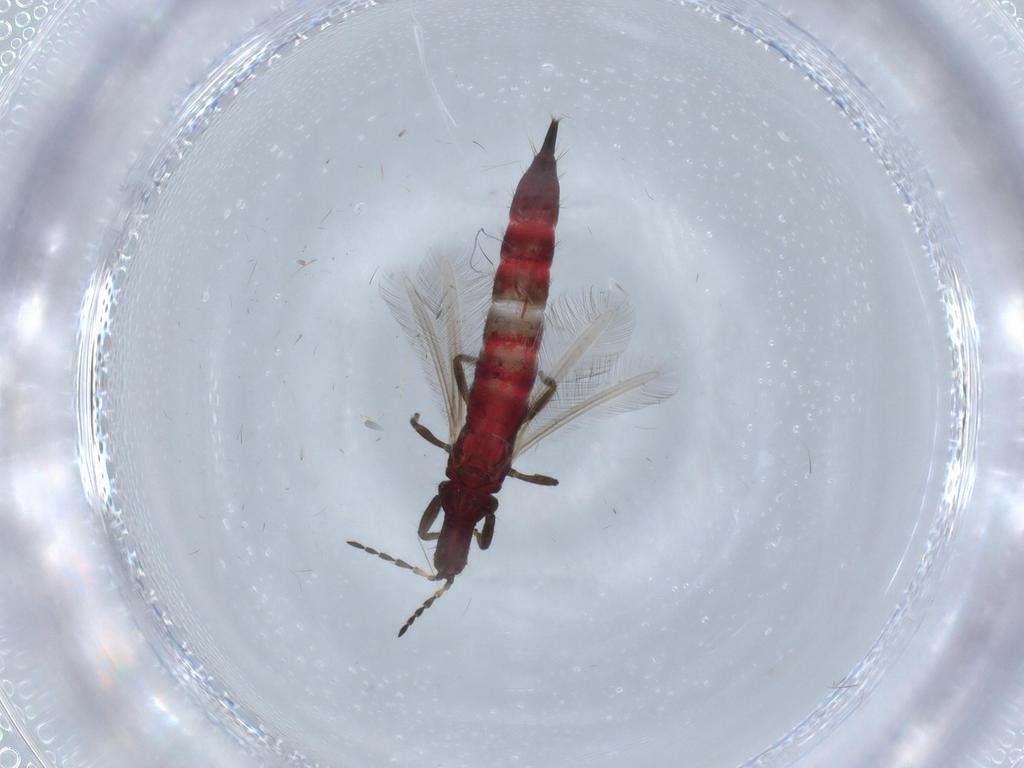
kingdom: Animalia
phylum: Arthropoda
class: Insecta
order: Thysanoptera
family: Phlaeothripidae
